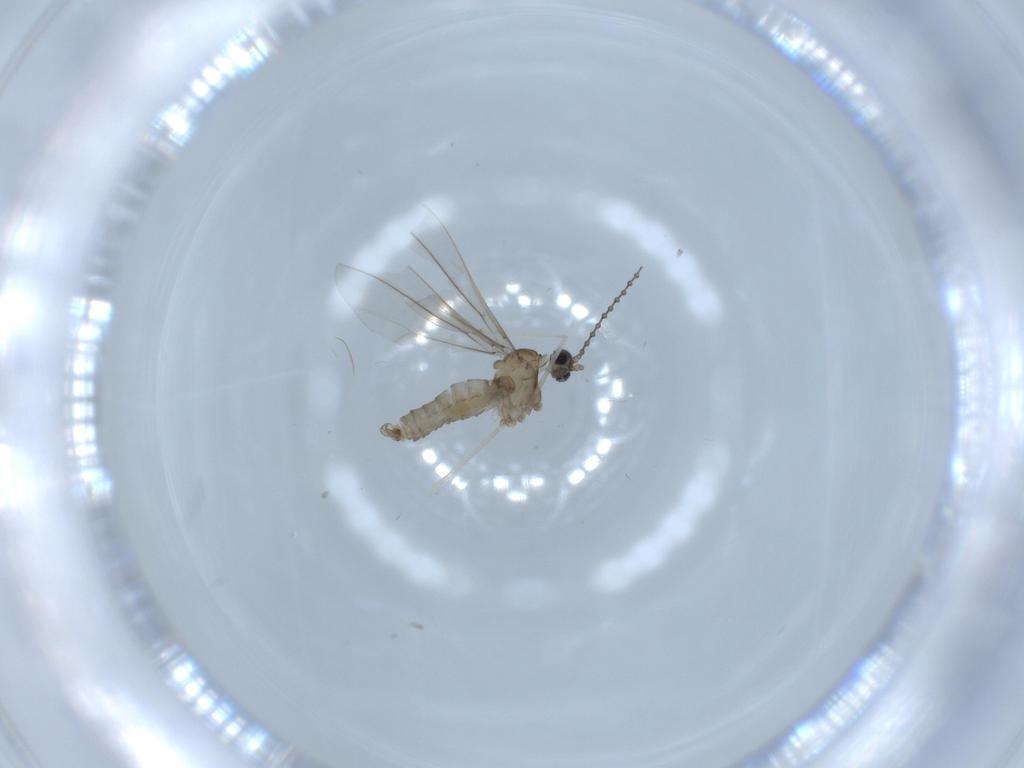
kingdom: Animalia
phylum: Arthropoda
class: Insecta
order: Diptera
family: Cecidomyiidae
